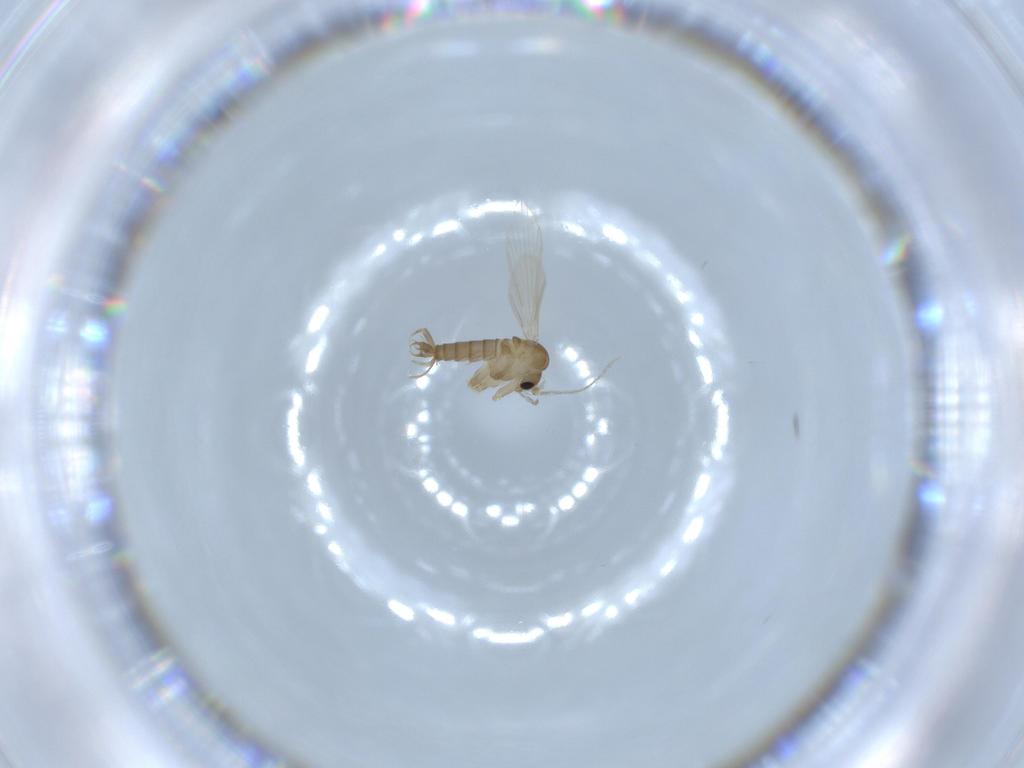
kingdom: Animalia
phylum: Arthropoda
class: Insecta
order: Diptera
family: Psychodidae
